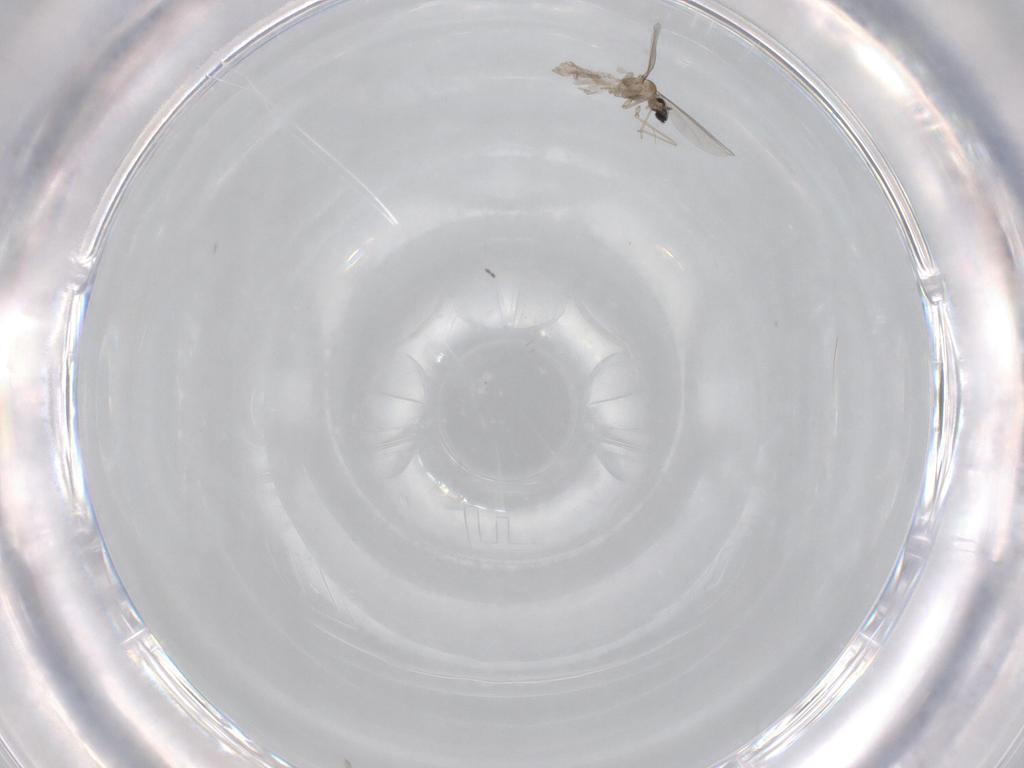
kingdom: Animalia
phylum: Arthropoda
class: Insecta
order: Diptera
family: Cecidomyiidae
